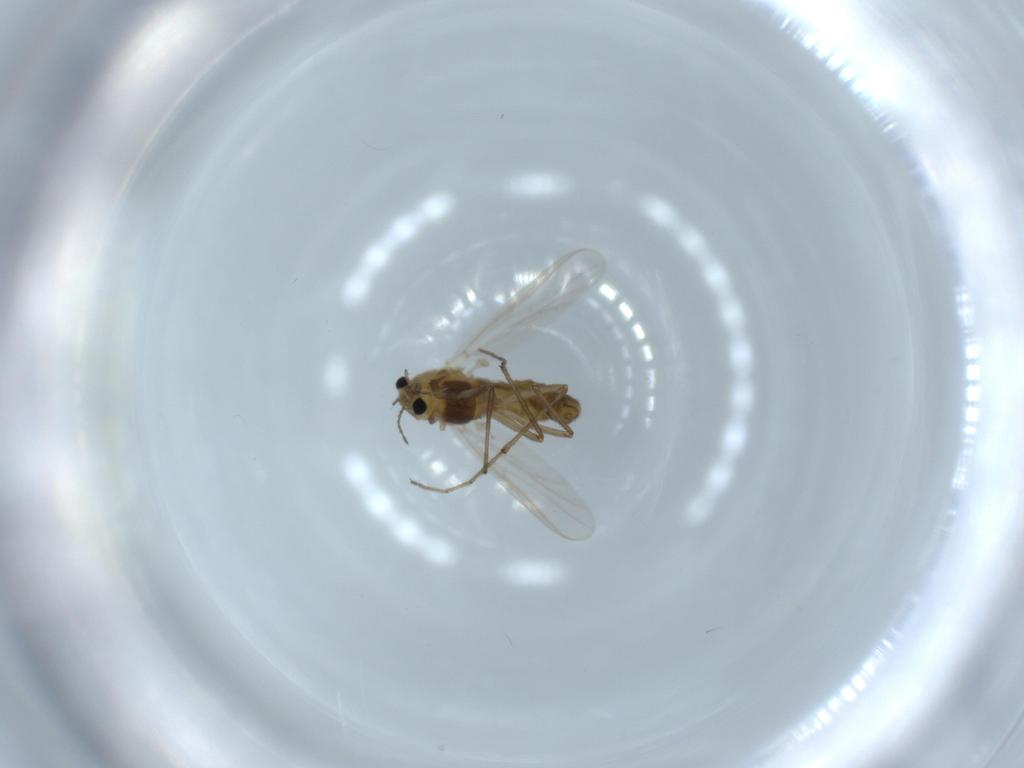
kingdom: Animalia
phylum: Arthropoda
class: Insecta
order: Diptera
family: Chironomidae
